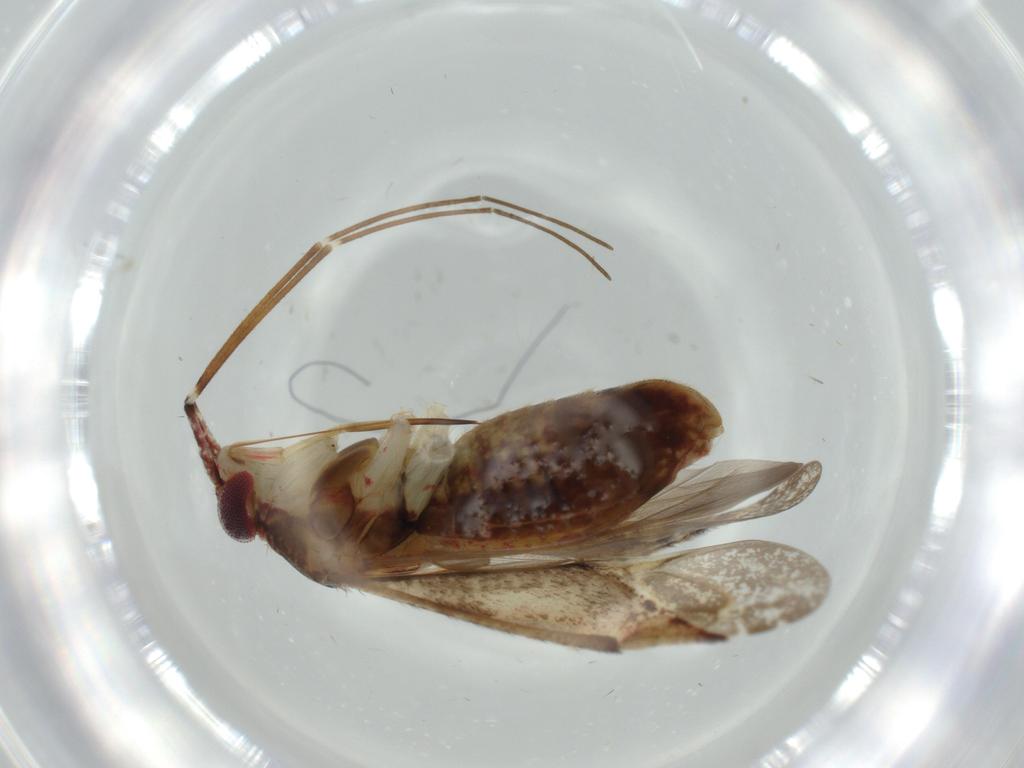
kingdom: Animalia
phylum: Arthropoda
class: Insecta
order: Hemiptera
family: Miridae
